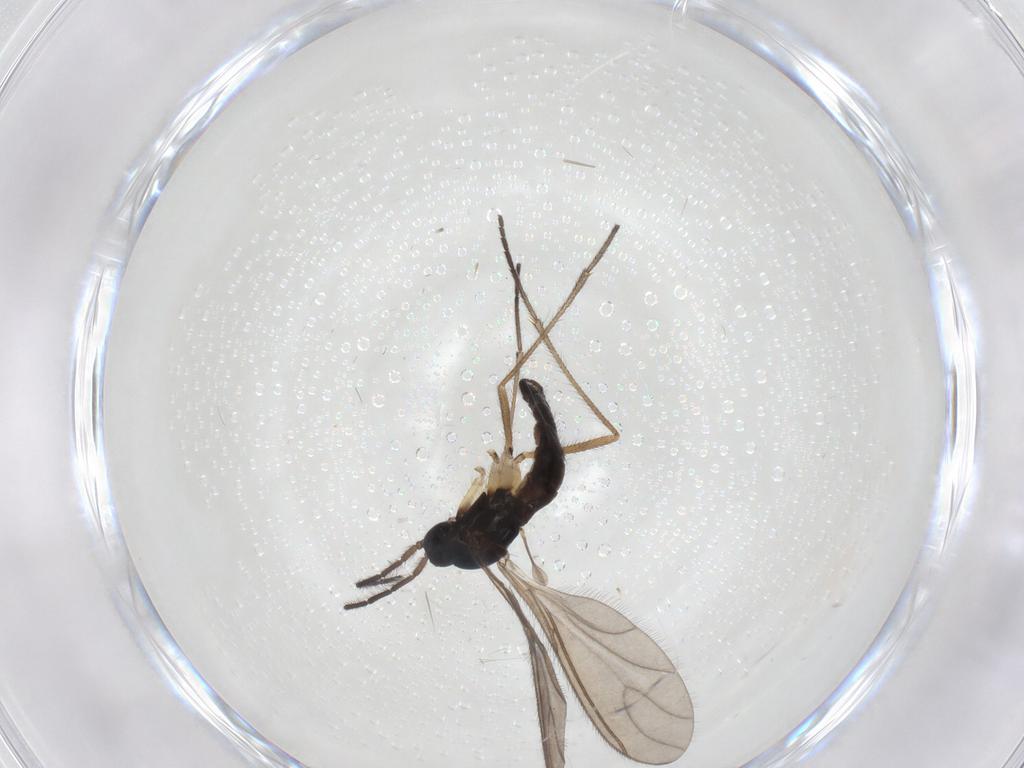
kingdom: Animalia
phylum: Arthropoda
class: Insecta
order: Diptera
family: Sciaridae
